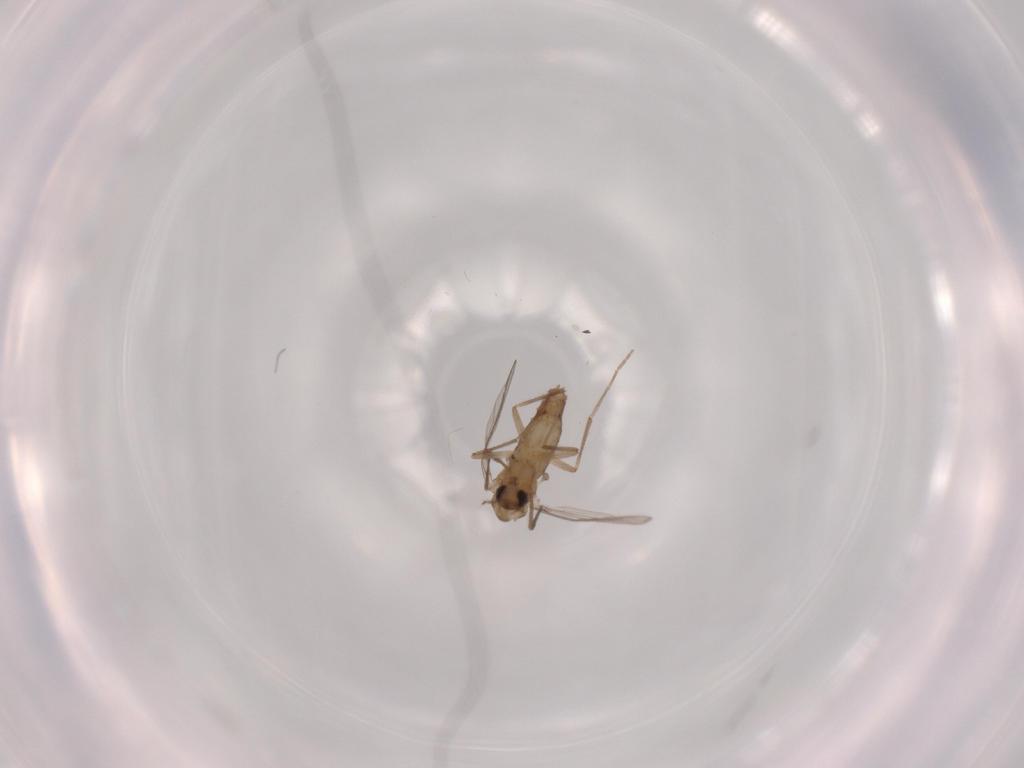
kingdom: Animalia
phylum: Arthropoda
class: Insecta
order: Diptera
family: Chironomidae
